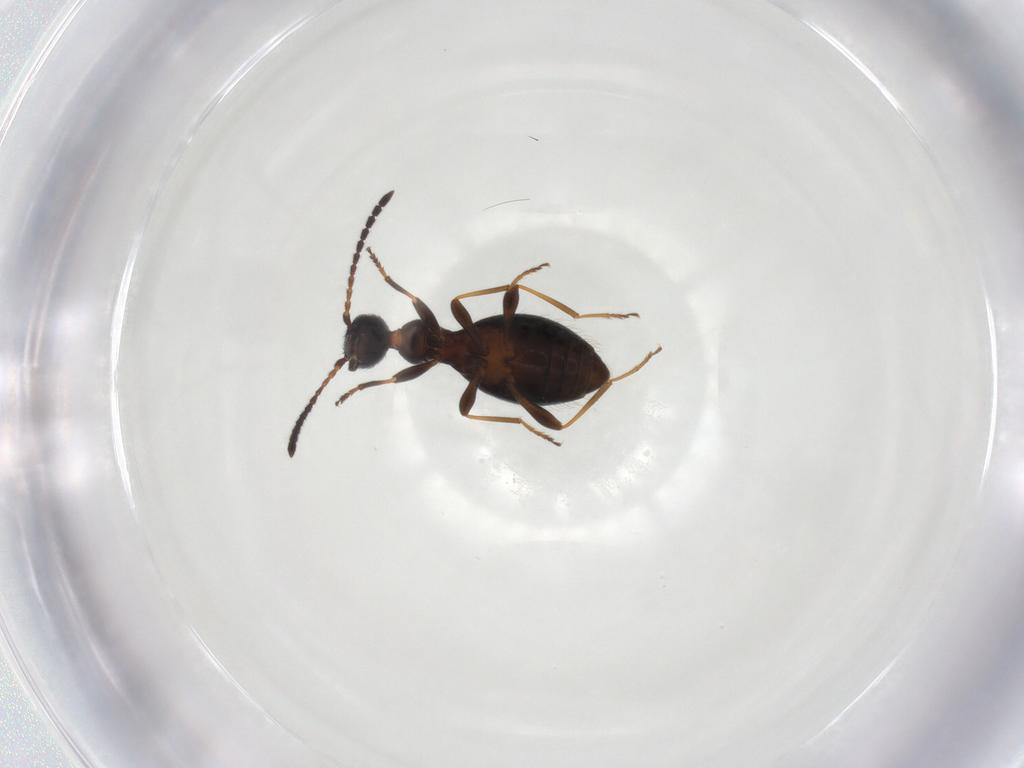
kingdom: Animalia
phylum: Arthropoda
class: Insecta
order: Coleoptera
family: Anthicidae
